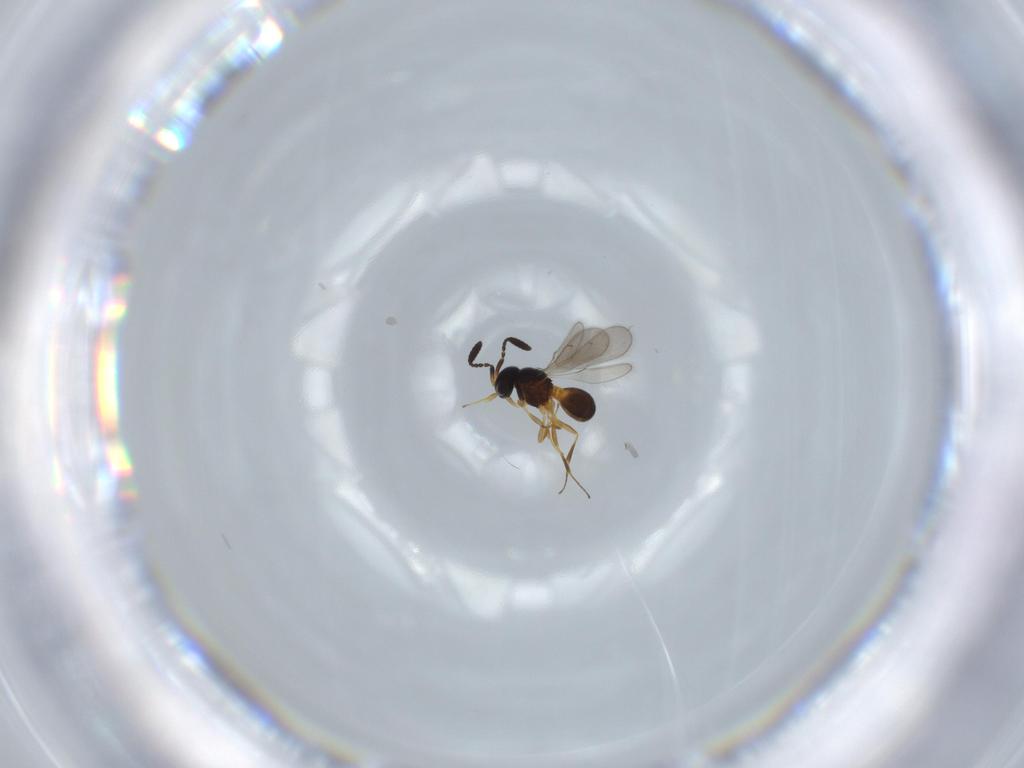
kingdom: Animalia
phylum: Arthropoda
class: Insecta
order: Hymenoptera
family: Scelionidae
